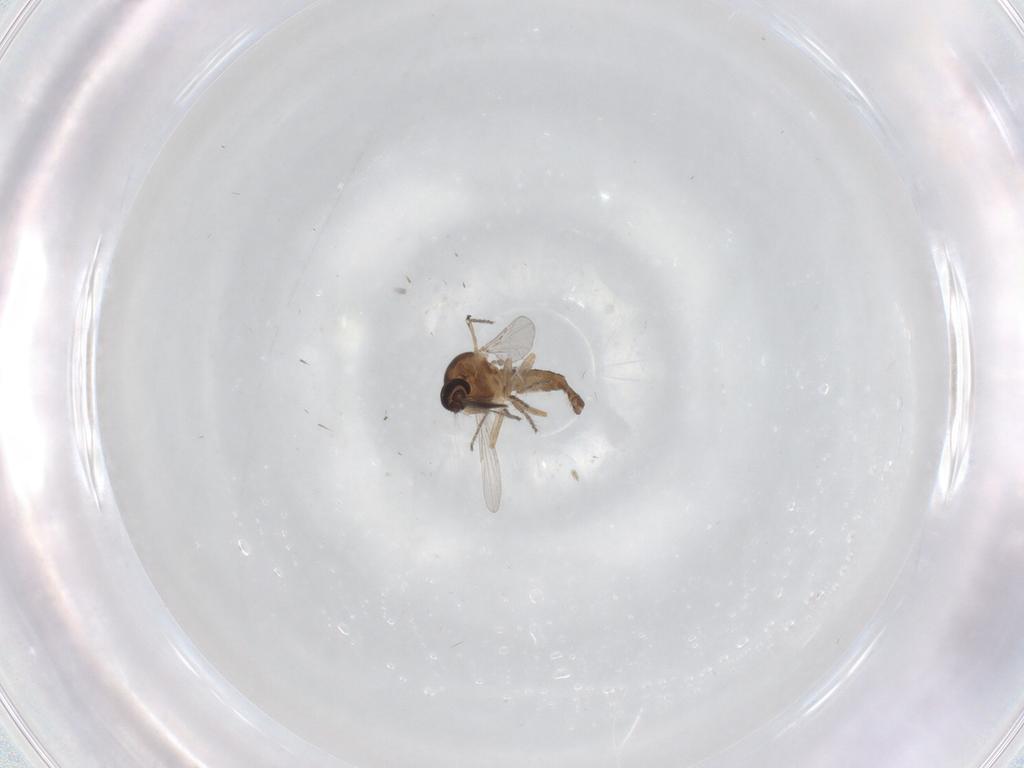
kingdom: Animalia
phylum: Arthropoda
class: Insecta
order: Diptera
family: Ceratopogonidae
